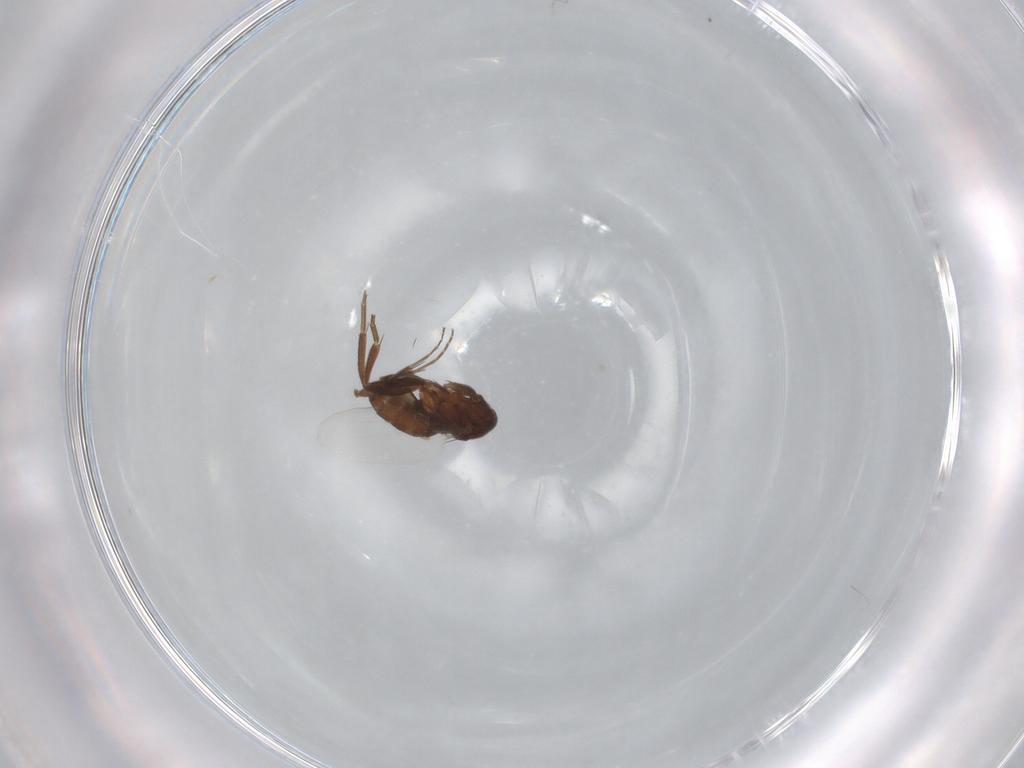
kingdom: Animalia
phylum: Arthropoda
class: Insecta
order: Diptera
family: Phoridae
